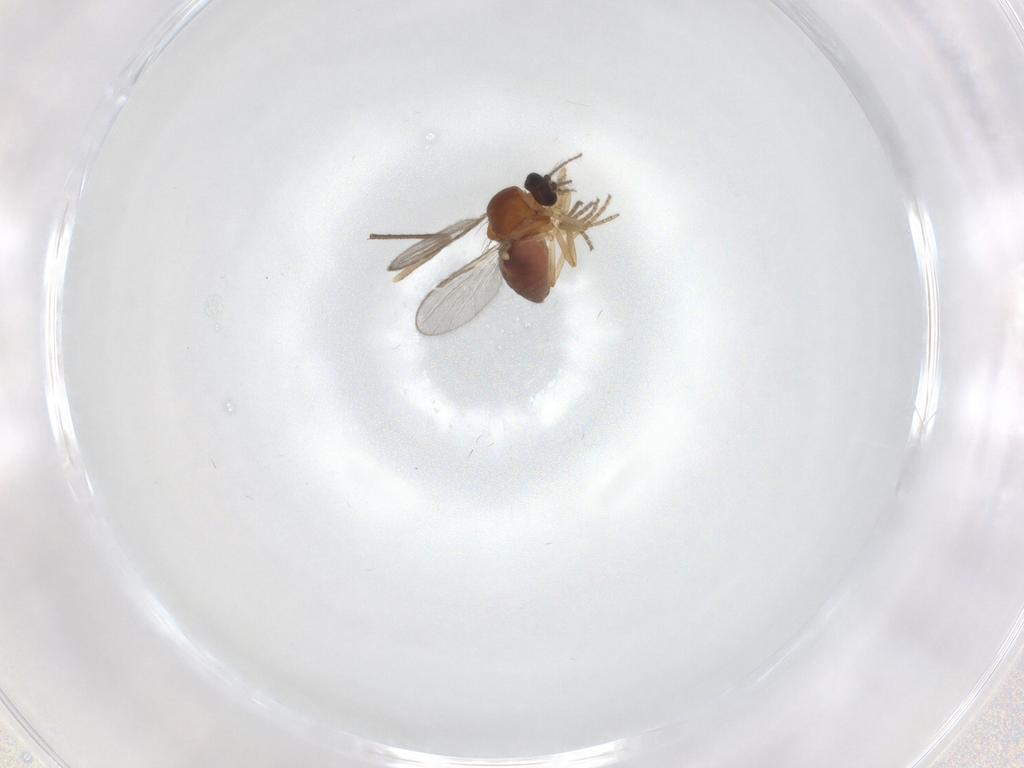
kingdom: Animalia
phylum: Arthropoda
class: Insecta
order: Diptera
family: Ceratopogonidae
